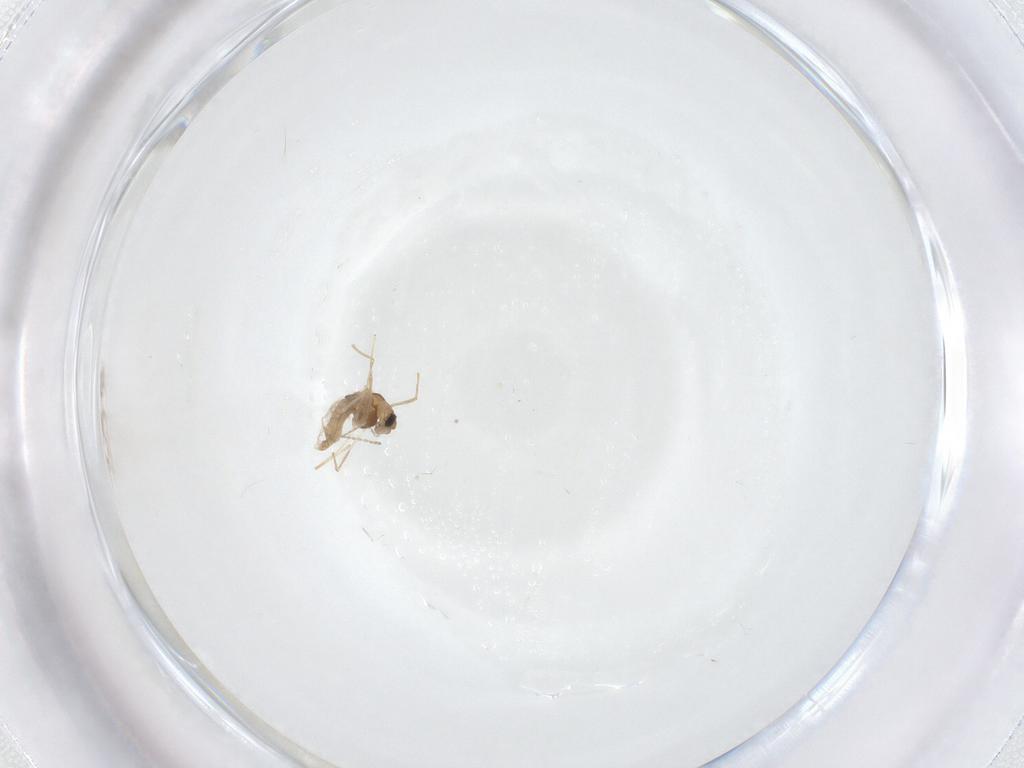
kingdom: Animalia
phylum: Arthropoda
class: Insecta
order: Diptera
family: Chironomidae
